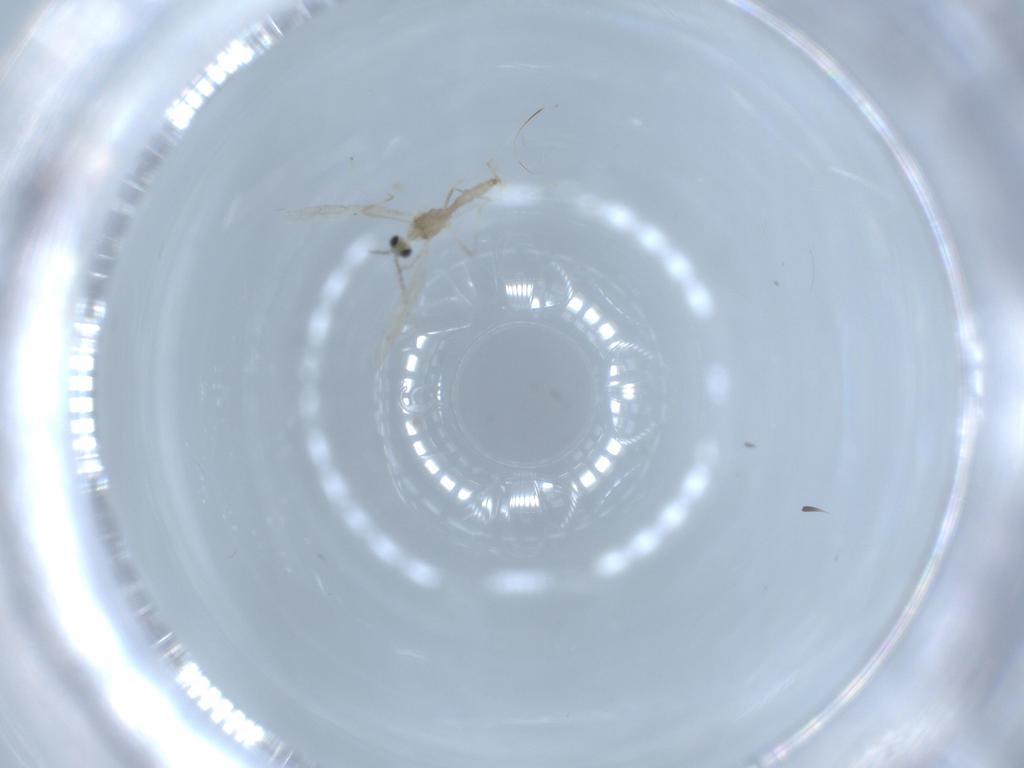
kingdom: Animalia
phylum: Arthropoda
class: Insecta
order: Diptera
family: Cecidomyiidae
